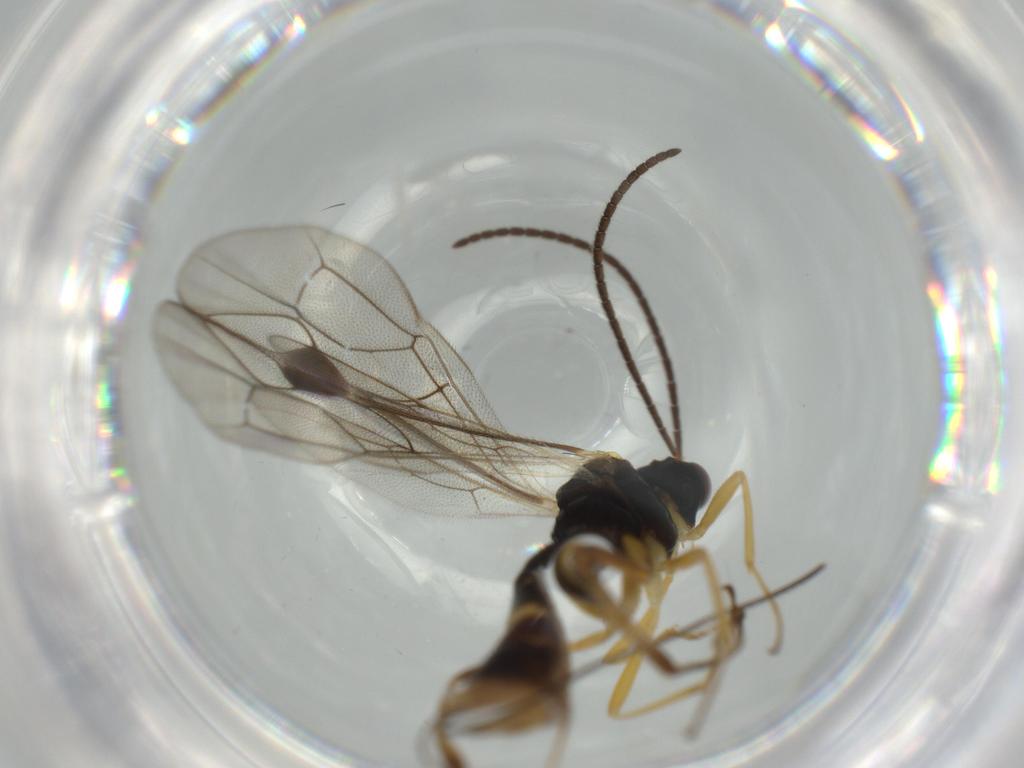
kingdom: Animalia
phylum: Arthropoda
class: Insecta
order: Hymenoptera
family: Ichneumonidae
